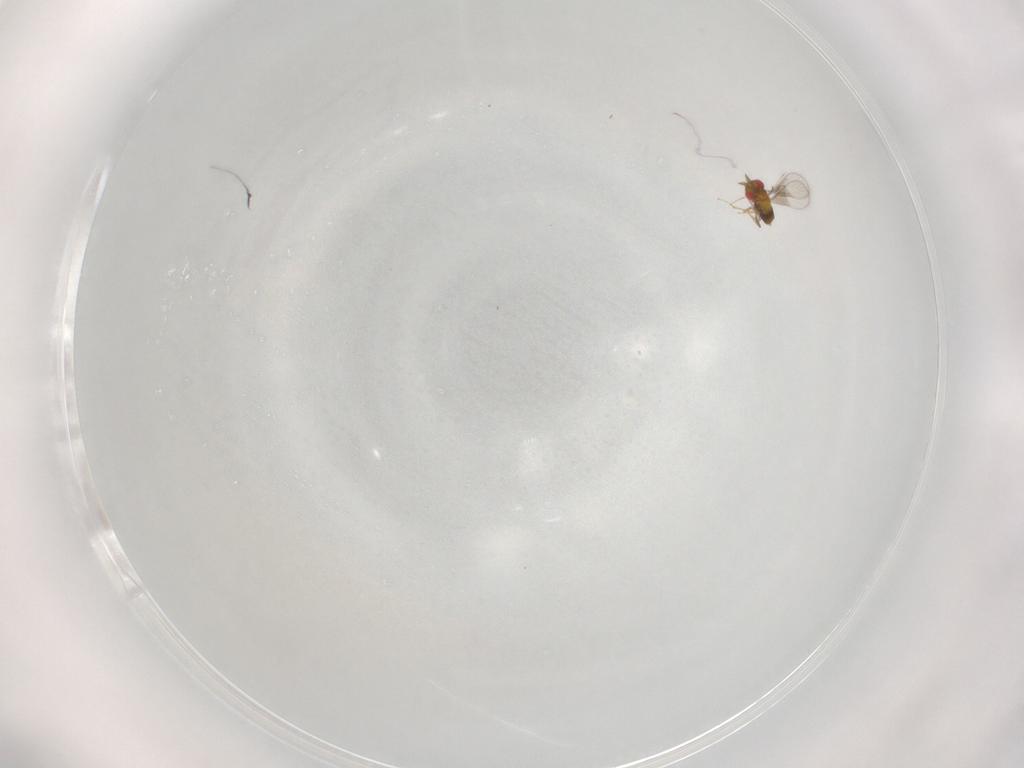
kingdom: Animalia
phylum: Arthropoda
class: Insecta
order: Hymenoptera
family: Trichogrammatidae
